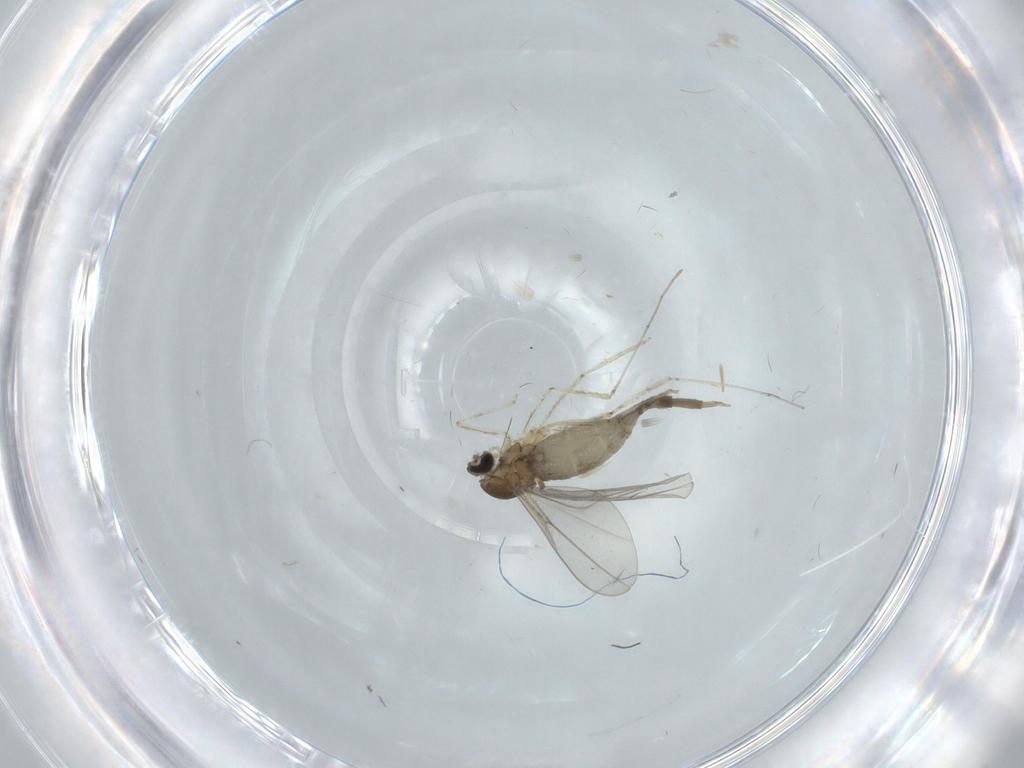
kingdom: Animalia
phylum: Arthropoda
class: Insecta
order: Diptera
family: Cecidomyiidae
